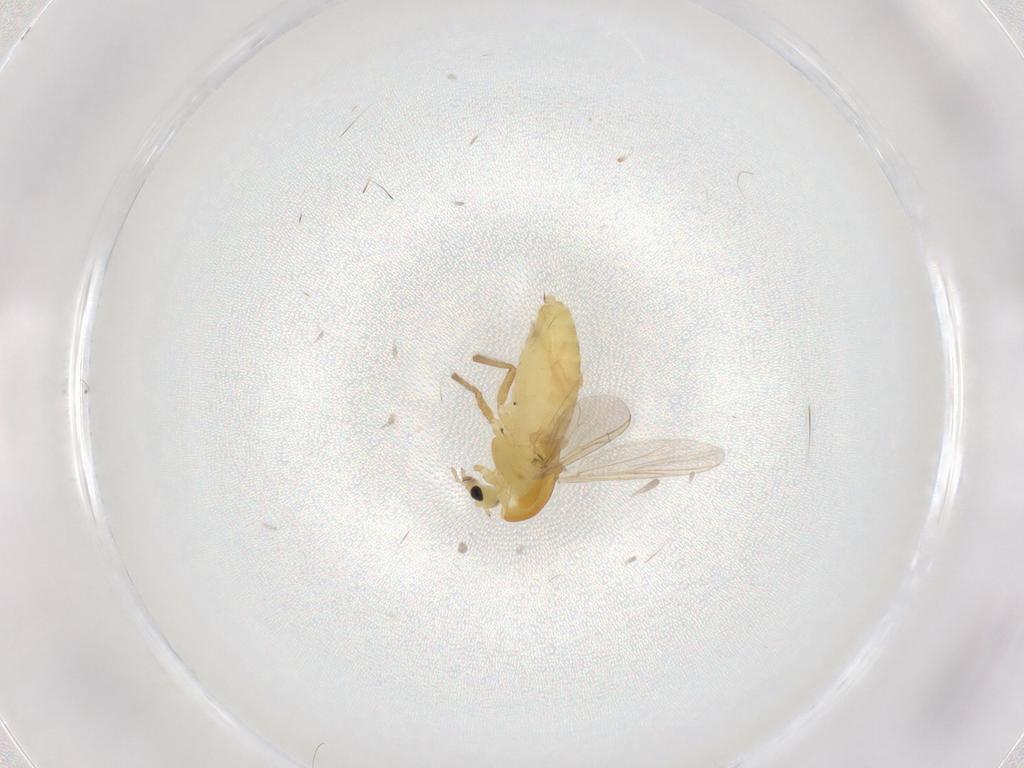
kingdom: Animalia
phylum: Arthropoda
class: Insecta
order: Diptera
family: Chironomidae
